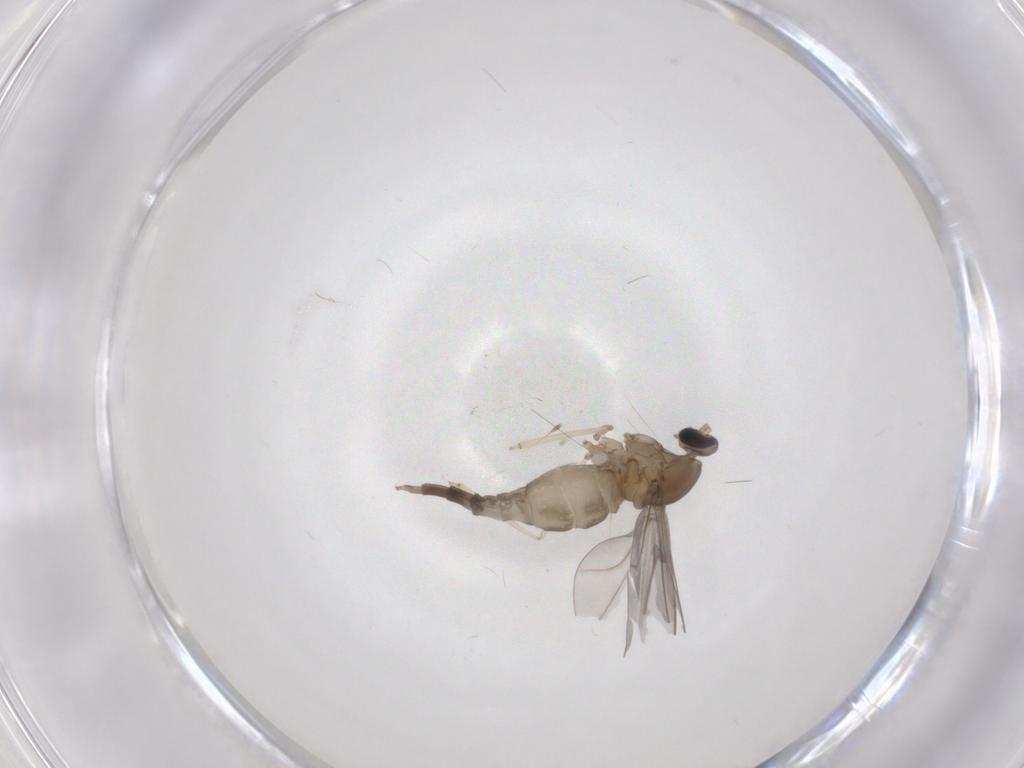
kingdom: Animalia
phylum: Arthropoda
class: Insecta
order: Diptera
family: Cecidomyiidae
